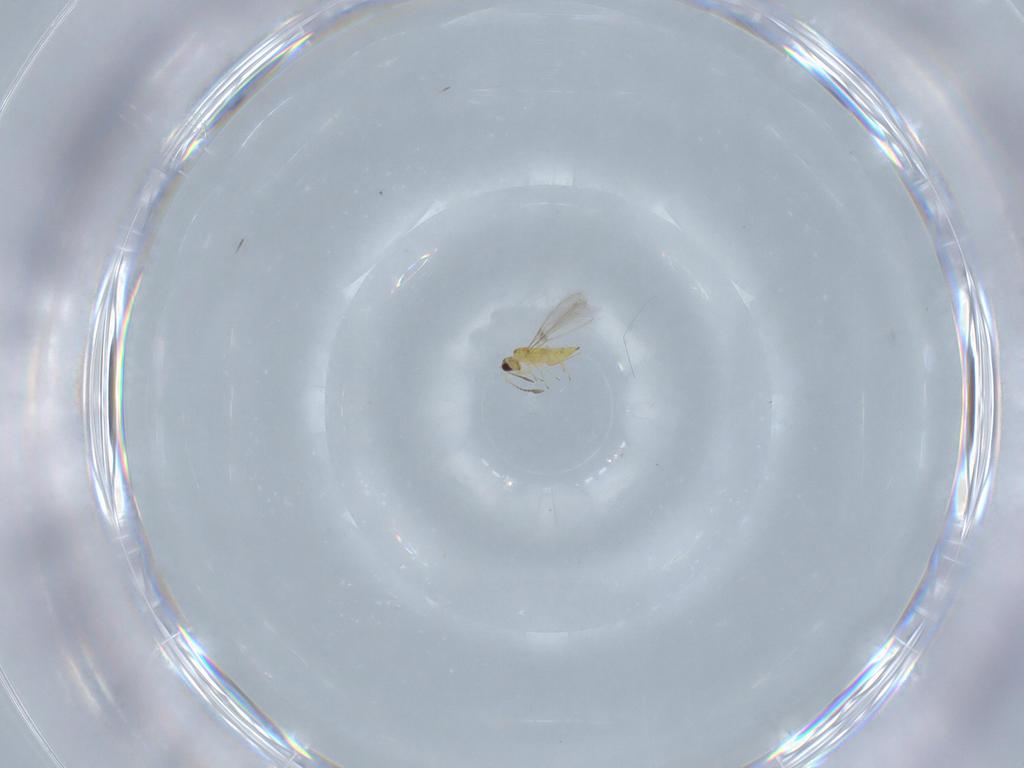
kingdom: Animalia
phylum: Arthropoda
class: Insecta
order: Hymenoptera
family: Mymaridae
